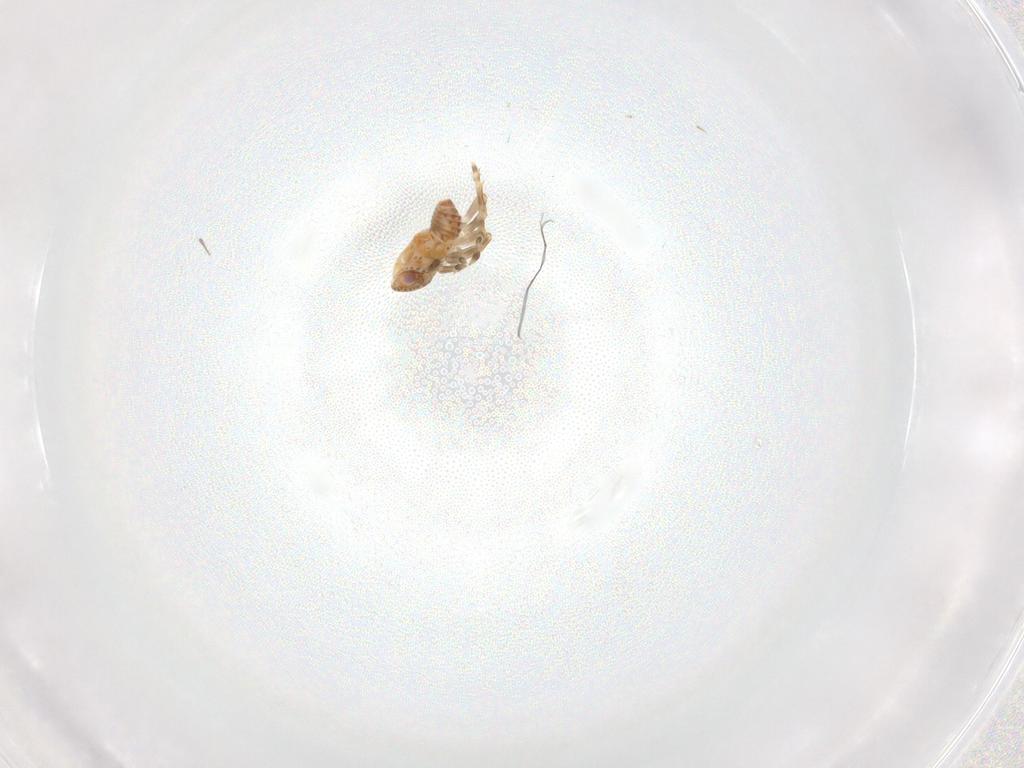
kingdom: Animalia
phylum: Arthropoda
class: Insecta
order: Hemiptera
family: Flatidae
